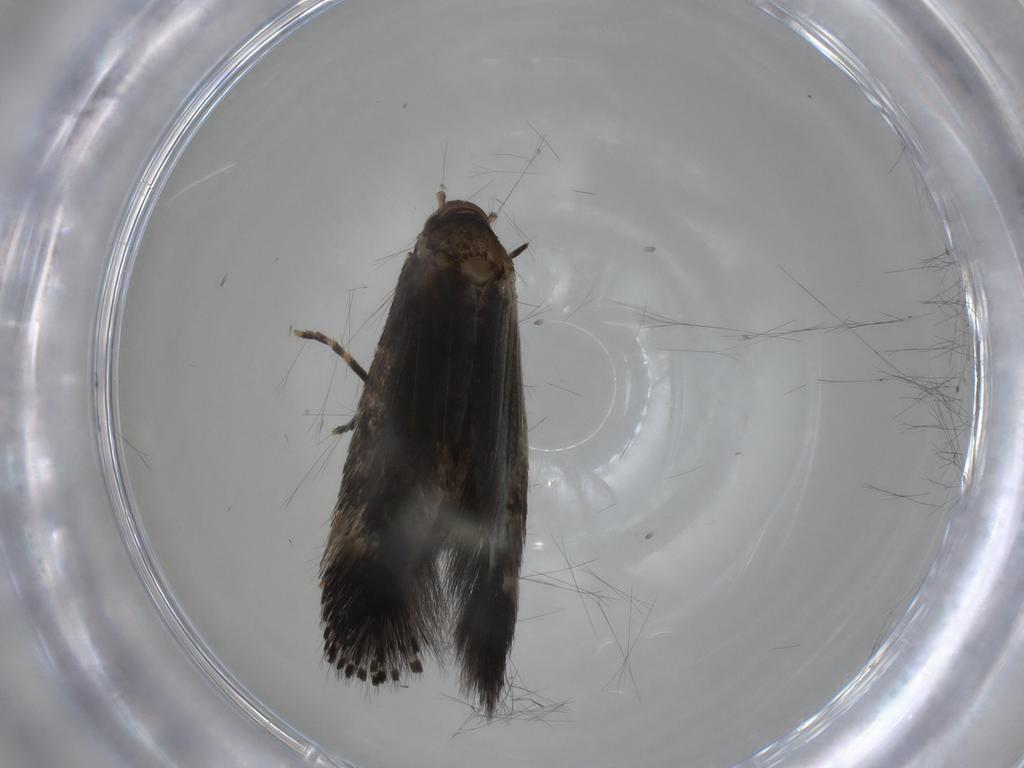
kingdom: Animalia
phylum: Arthropoda
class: Insecta
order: Lepidoptera
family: Elachistidae
